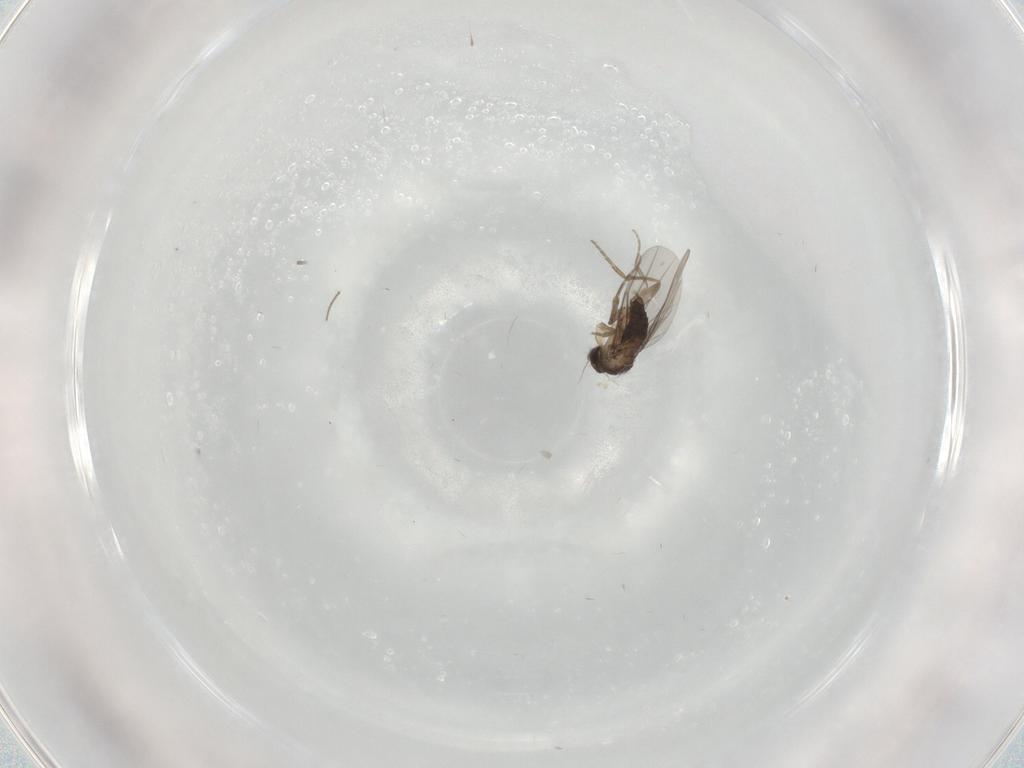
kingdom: Animalia
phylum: Arthropoda
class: Insecta
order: Diptera
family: Phoridae
